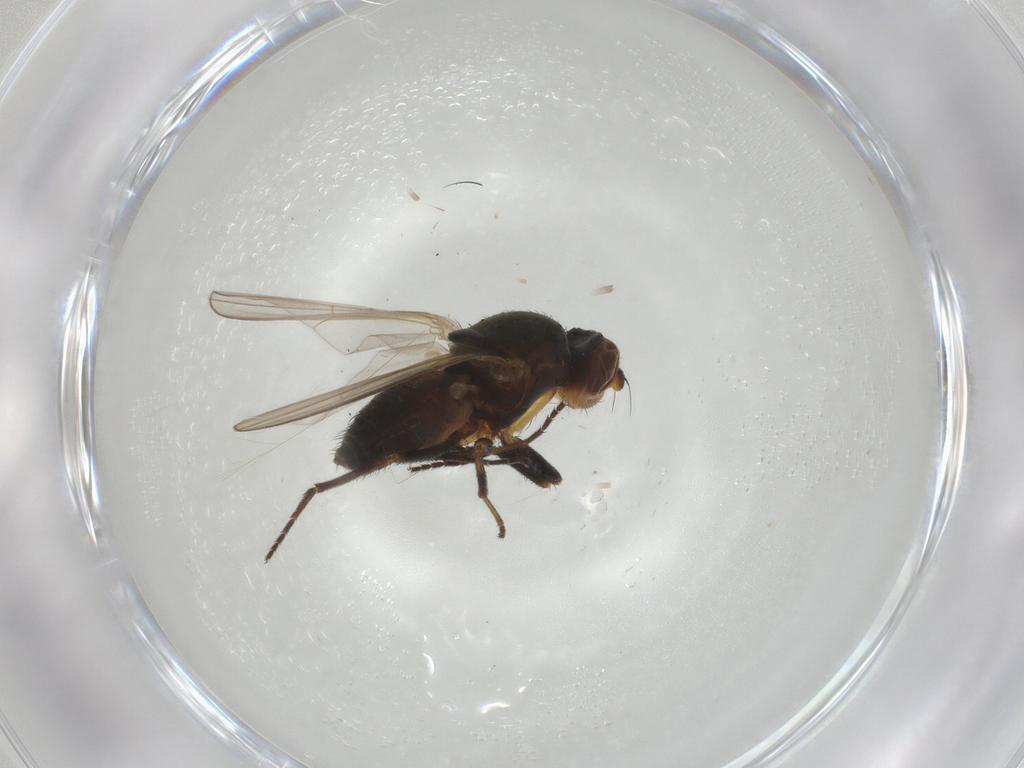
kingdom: Animalia
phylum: Arthropoda
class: Insecta
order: Diptera
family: Canacidae
